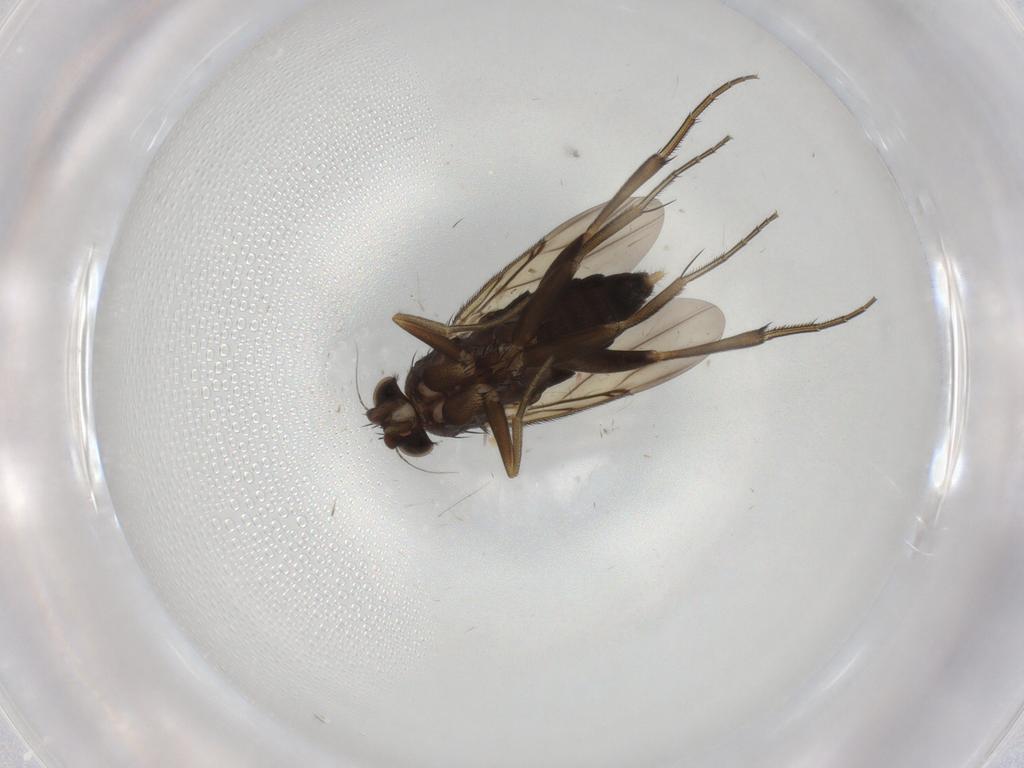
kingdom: Animalia
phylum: Arthropoda
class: Insecta
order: Diptera
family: Phoridae
